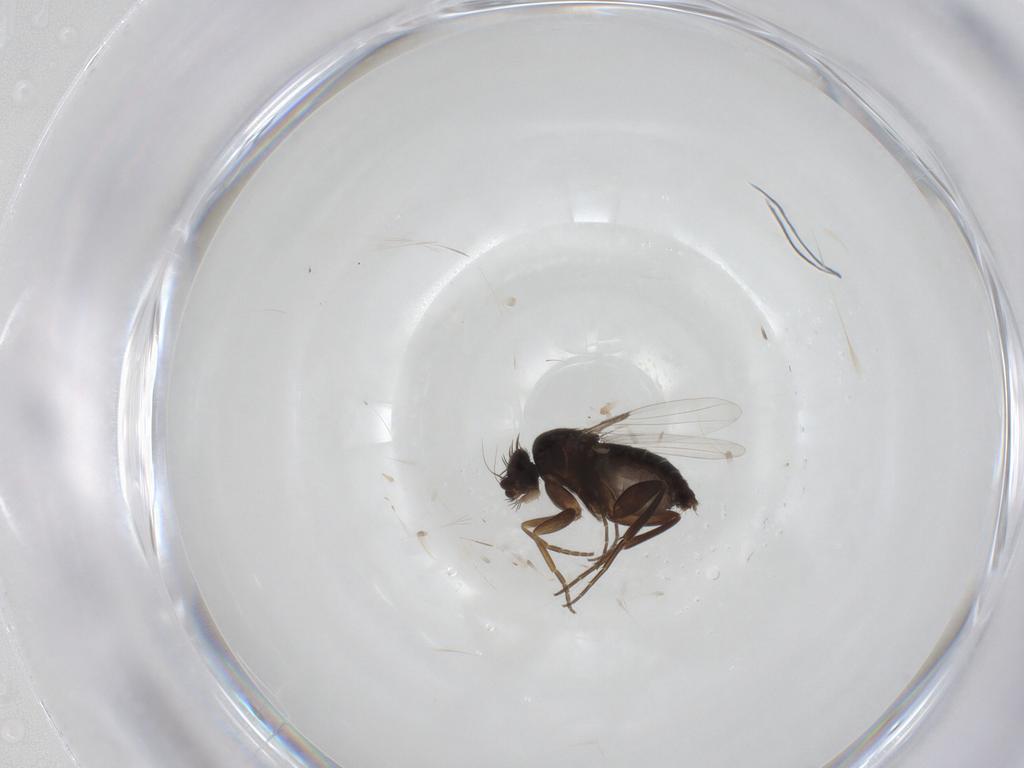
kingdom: Animalia
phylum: Arthropoda
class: Insecta
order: Diptera
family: Phoridae
